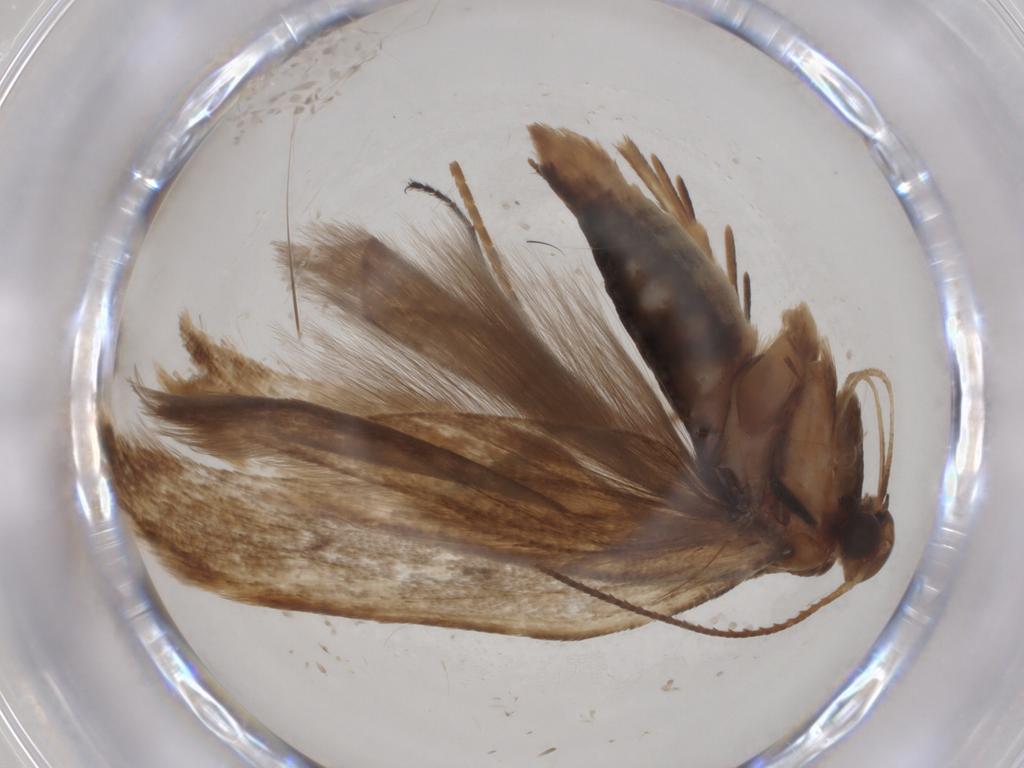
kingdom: Animalia
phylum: Arthropoda
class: Insecta
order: Lepidoptera
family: Gelechiidae
